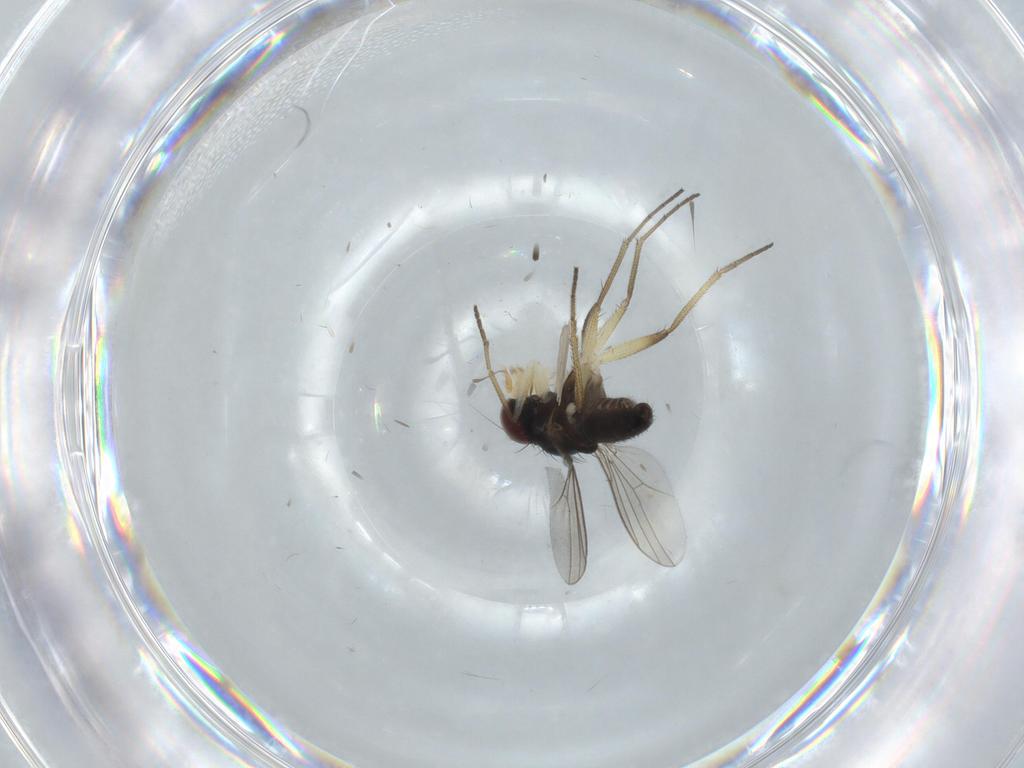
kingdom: Animalia
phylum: Arthropoda
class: Insecta
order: Diptera
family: Dolichopodidae
